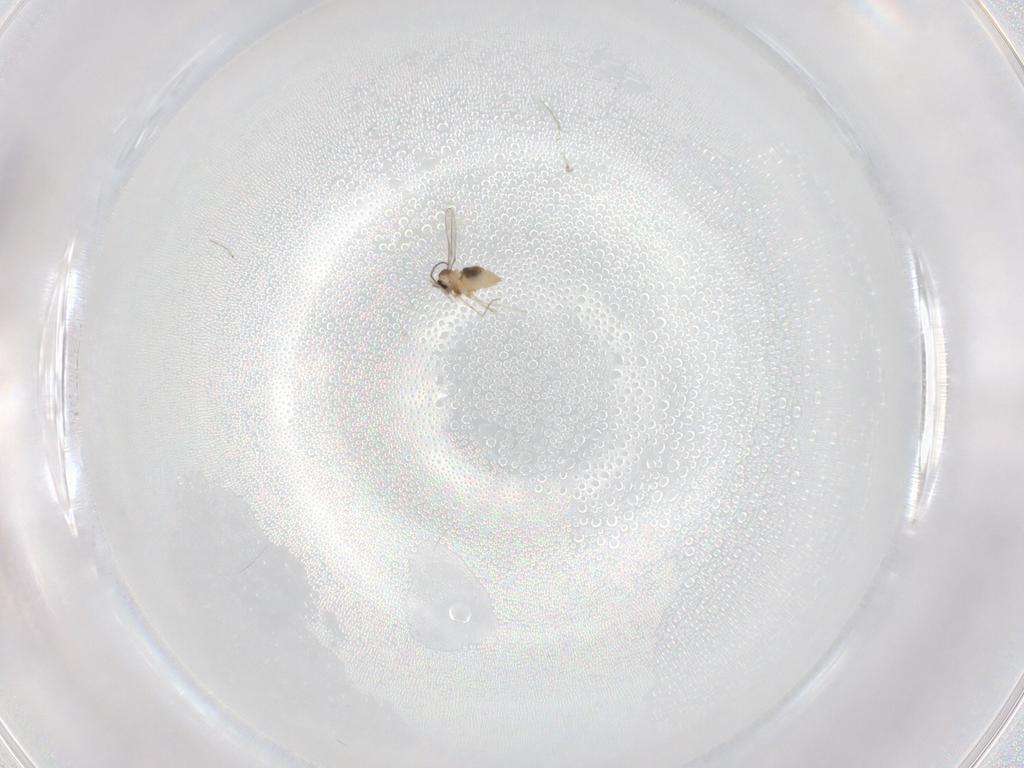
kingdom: Animalia
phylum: Arthropoda
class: Insecta
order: Diptera
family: Cecidomyiidae
